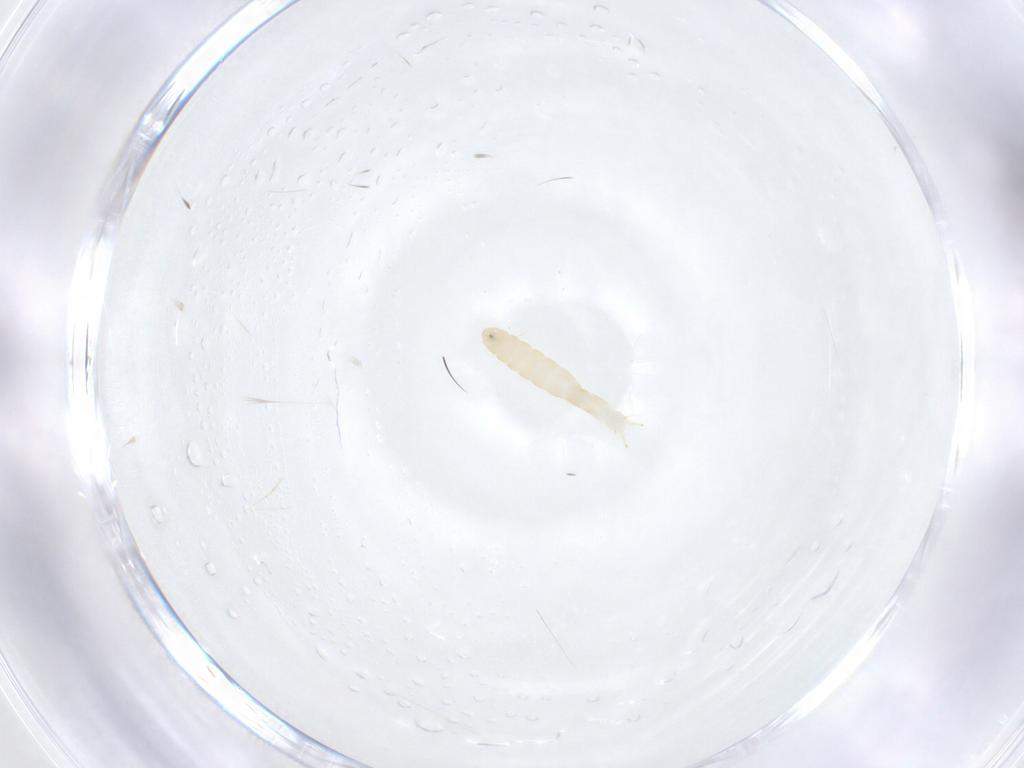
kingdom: Animalia
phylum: Arthropoda
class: Insecta
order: Diptera
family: Tachinidae
